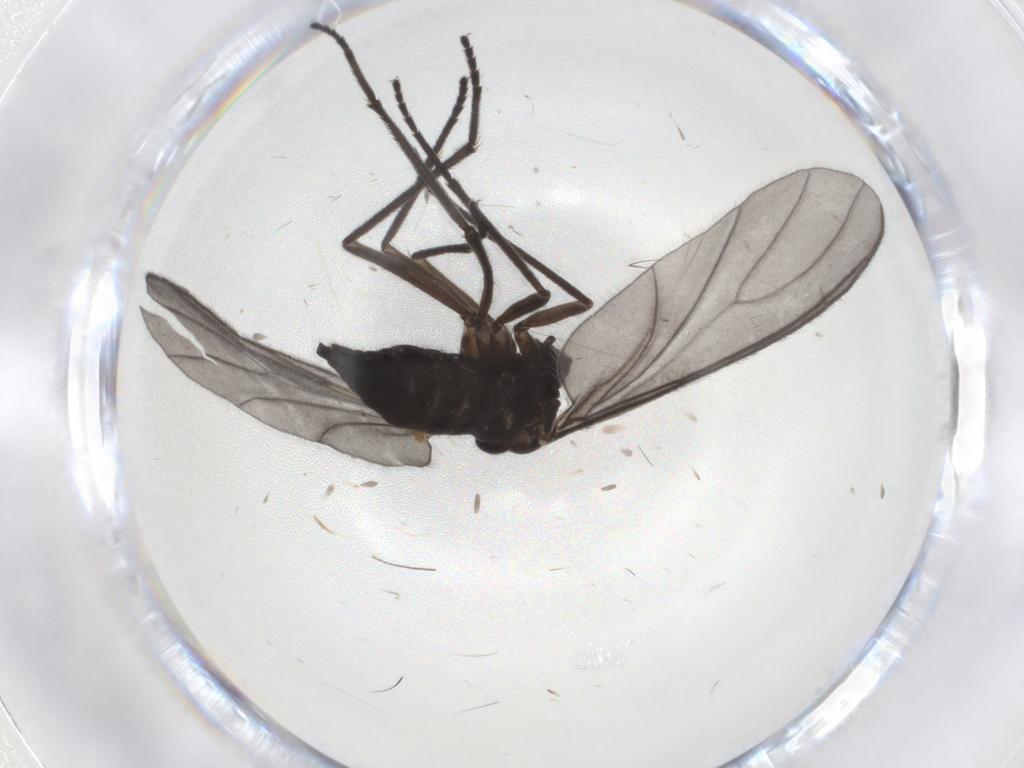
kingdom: Animalia
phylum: Arthropoda
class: Insecta
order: Diptera
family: Sciaridae
